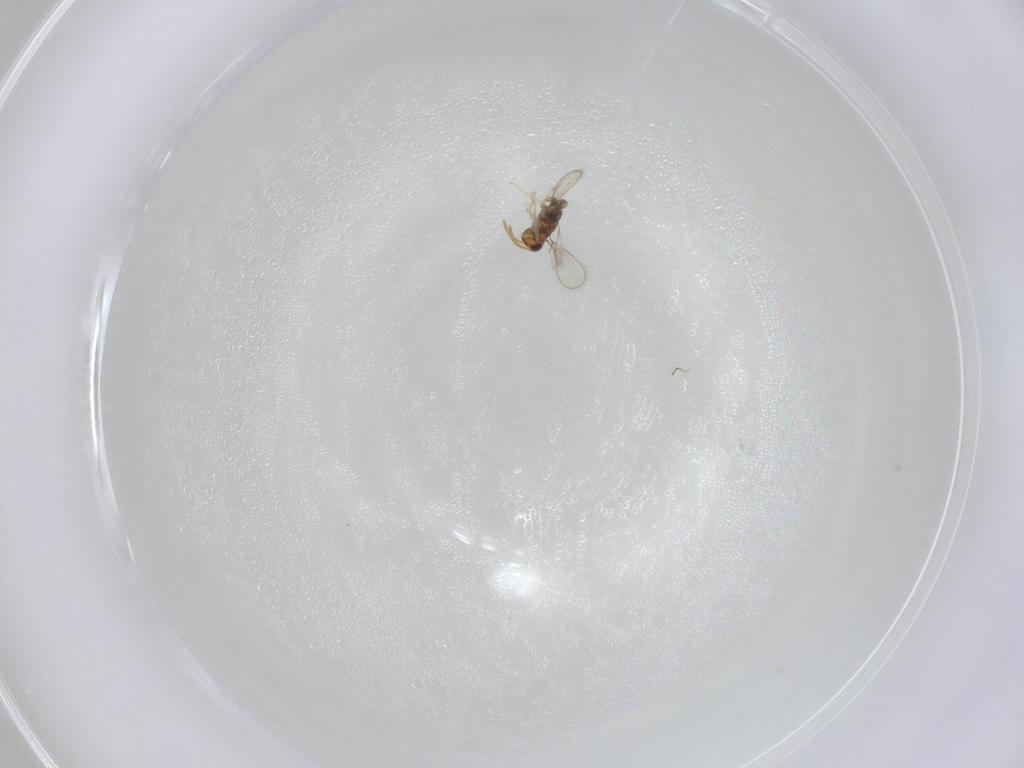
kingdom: Animalia
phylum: Arthropoda
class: Insecta
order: Hymenoptera
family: Aphelinidae
